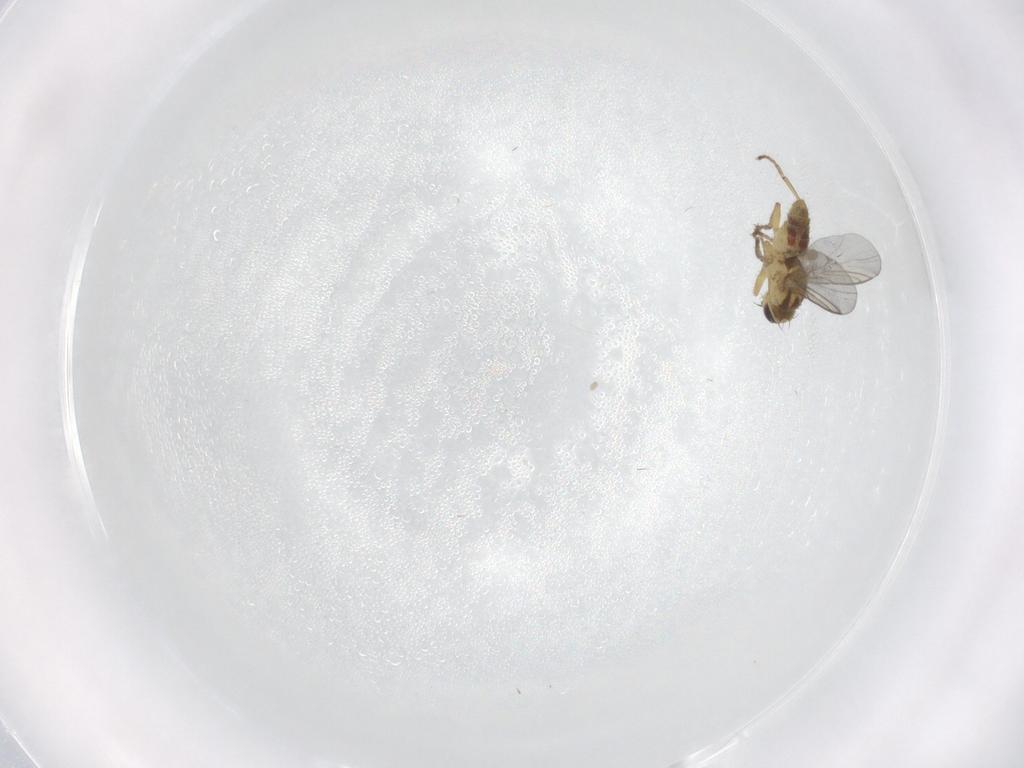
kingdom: Animalia
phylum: Arthropoda
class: Insecta
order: Diptera
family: Agromyzidae
